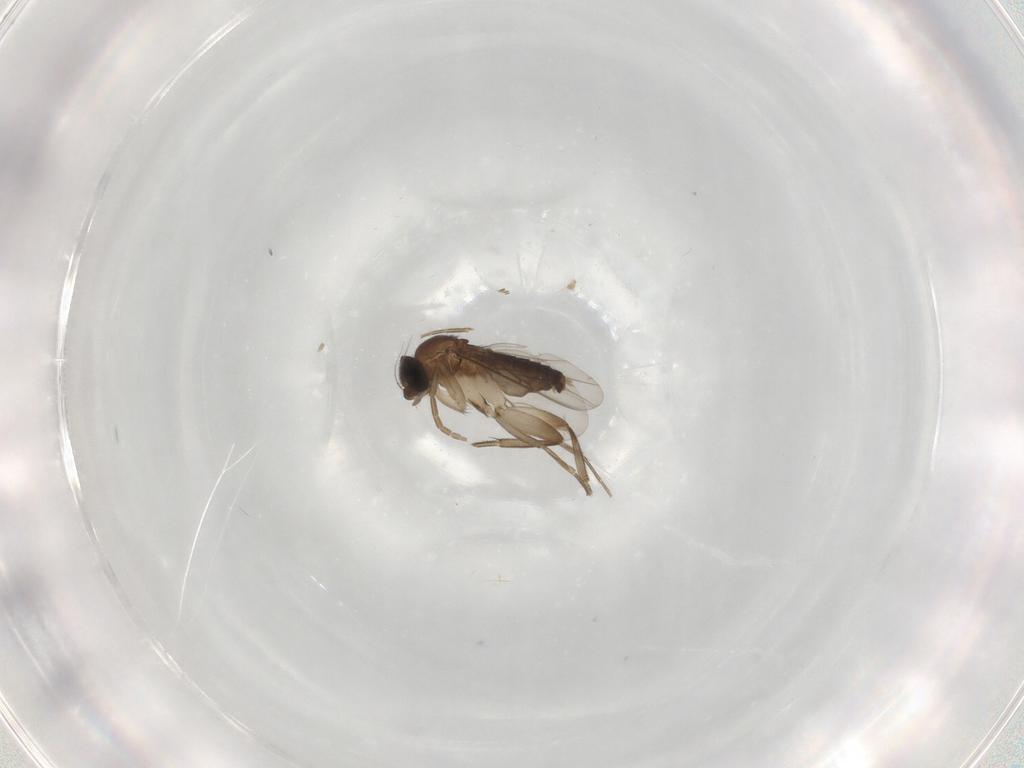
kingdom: Animalia
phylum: Arthropoda
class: Insecta
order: Diptera
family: Phoridae
